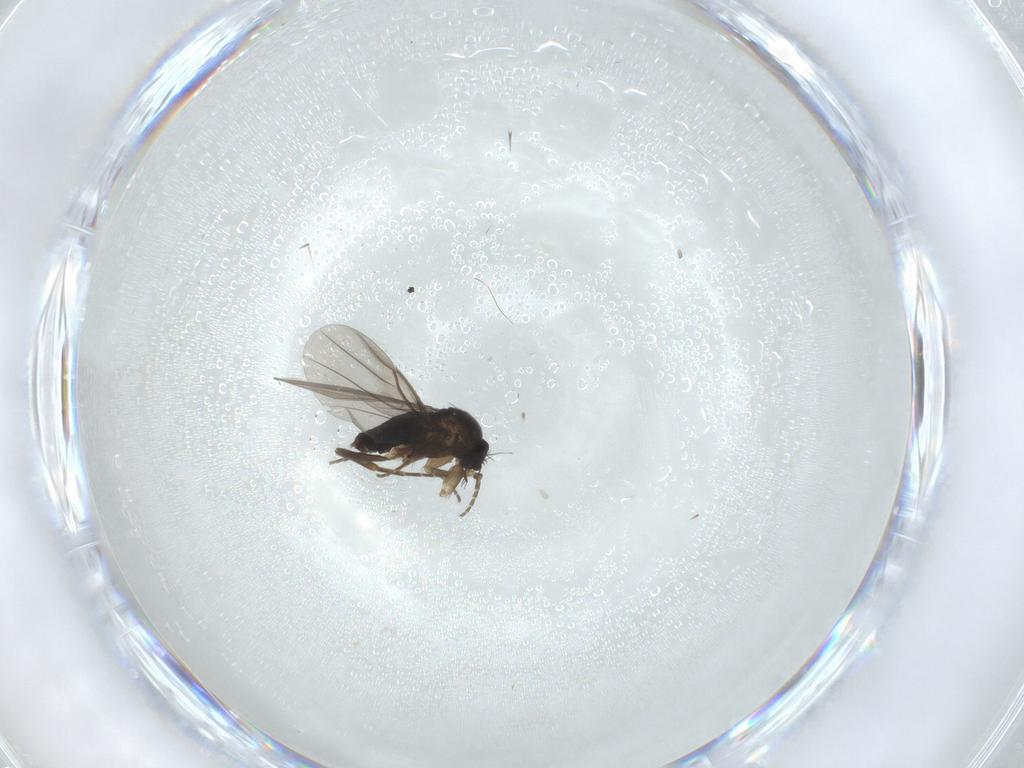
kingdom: Animalia
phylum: Arthropoda
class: Insecta
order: Diptera
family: Phoridae
